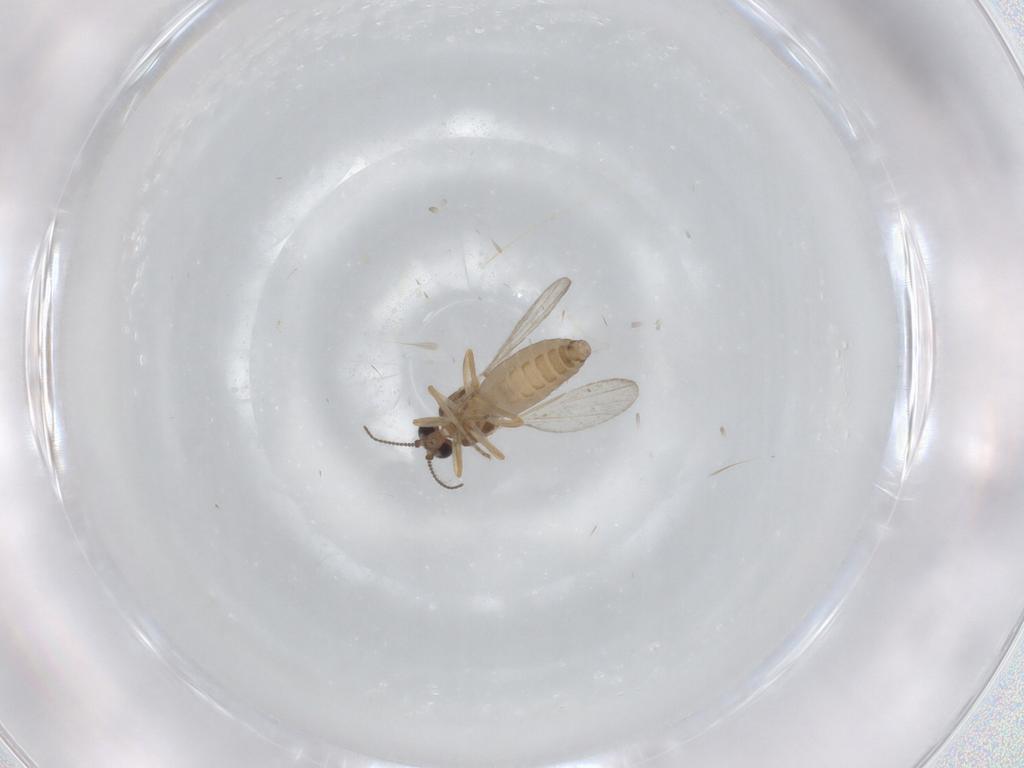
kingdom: Animalia
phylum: Arthropoda
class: Insecta
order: Diptera
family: Ceratopogonidae
